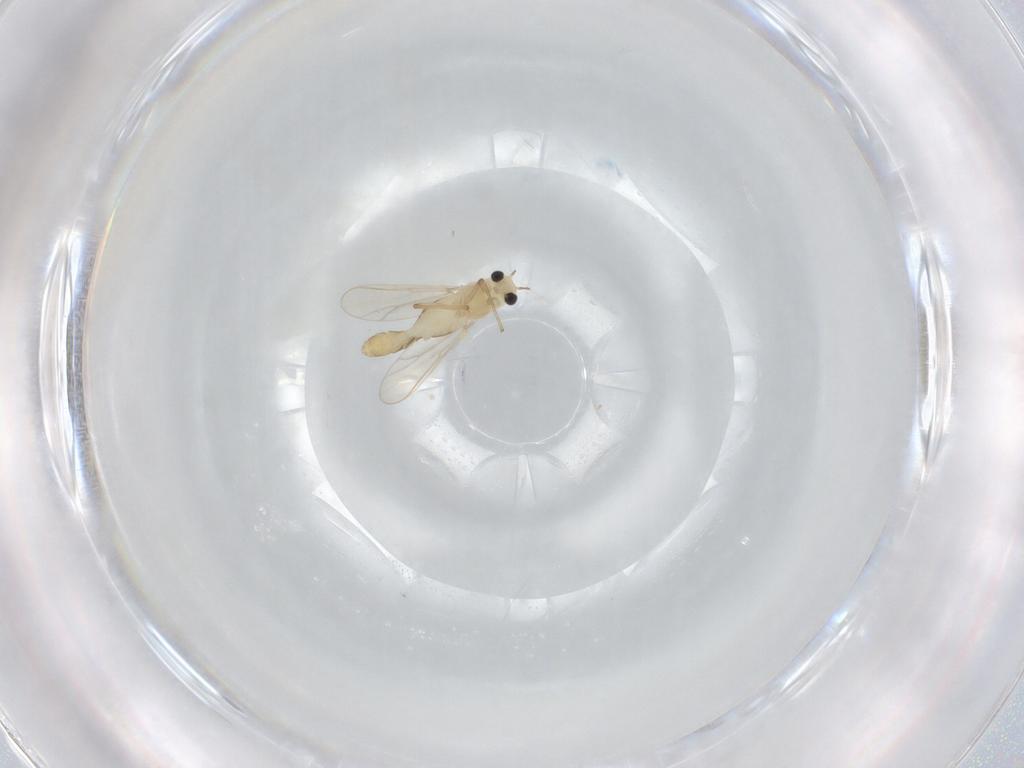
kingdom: Animalia
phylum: Arthropoda
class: Insecta
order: Diptera
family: Chironomidae
